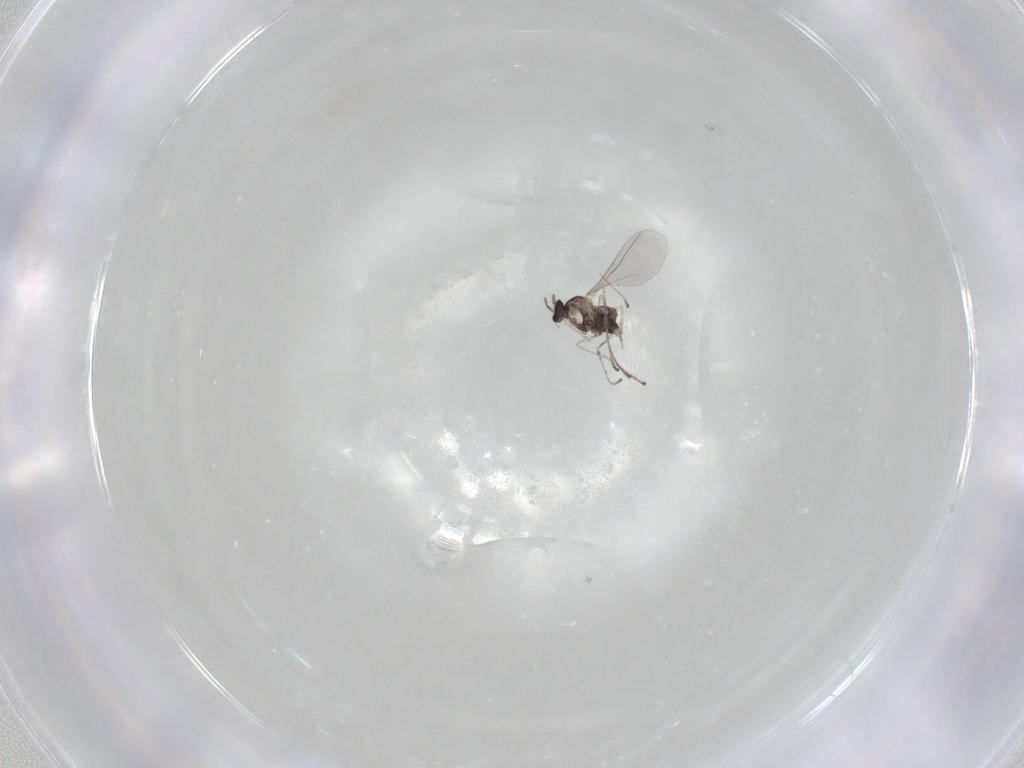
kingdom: Animalia
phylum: Arthropoda
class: Insecta
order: Diptera
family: Cecidomyiidae
